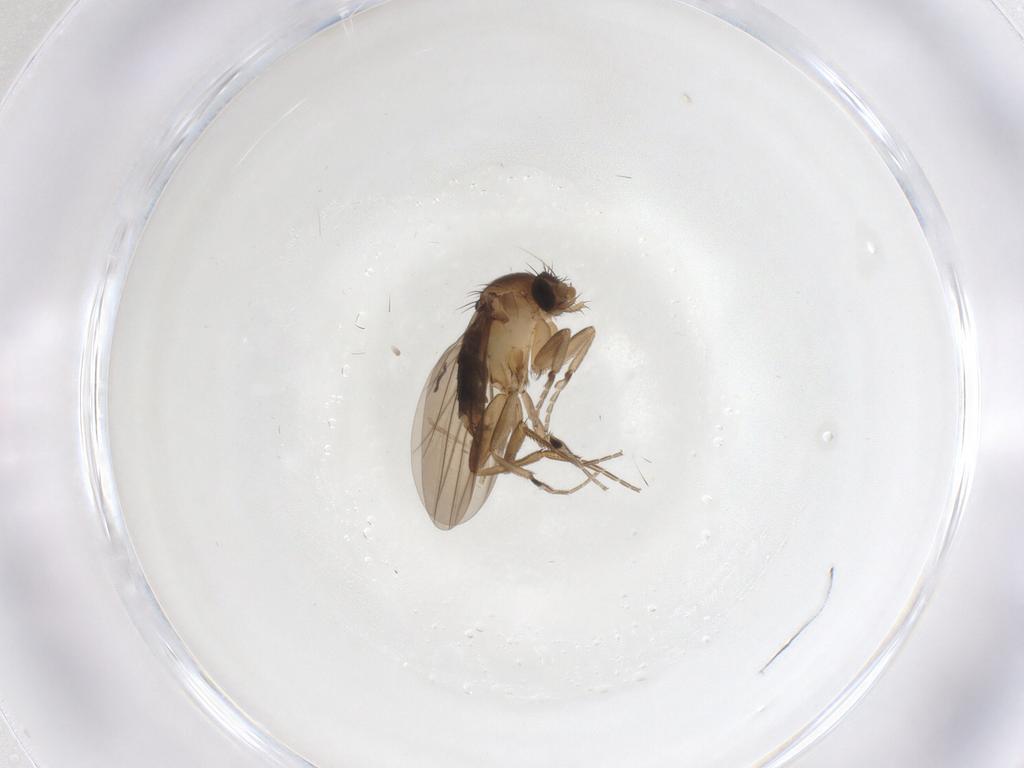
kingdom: Animalia
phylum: Arthropoda
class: Insecta
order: Diptera
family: Phoridae
